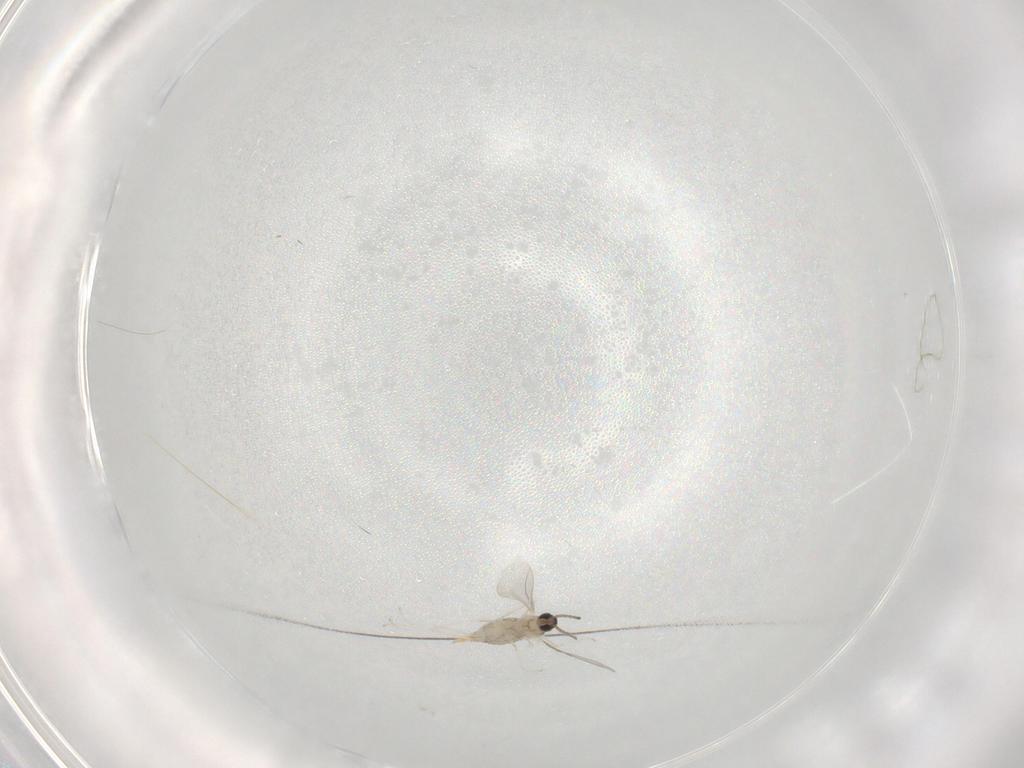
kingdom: Animalia
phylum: Arthropoda
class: Insecta
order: Diptera
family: Cecidomyiidae
